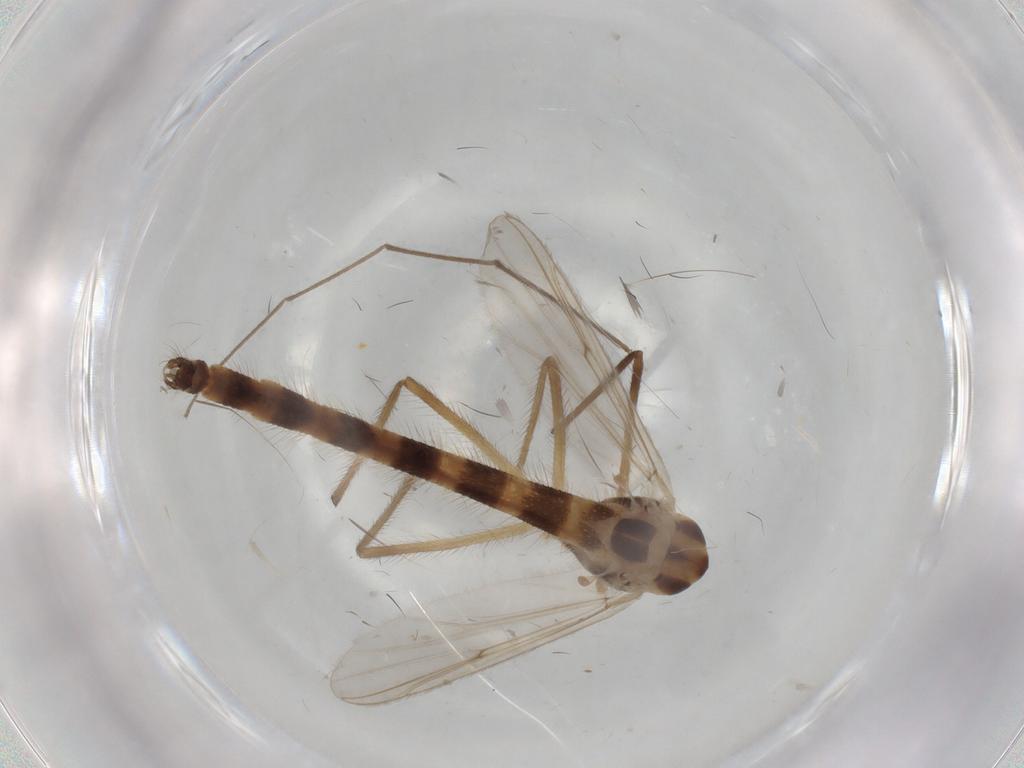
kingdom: Animalia
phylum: Arthropoda
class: Insecta
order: Diptera
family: Chironomidae
